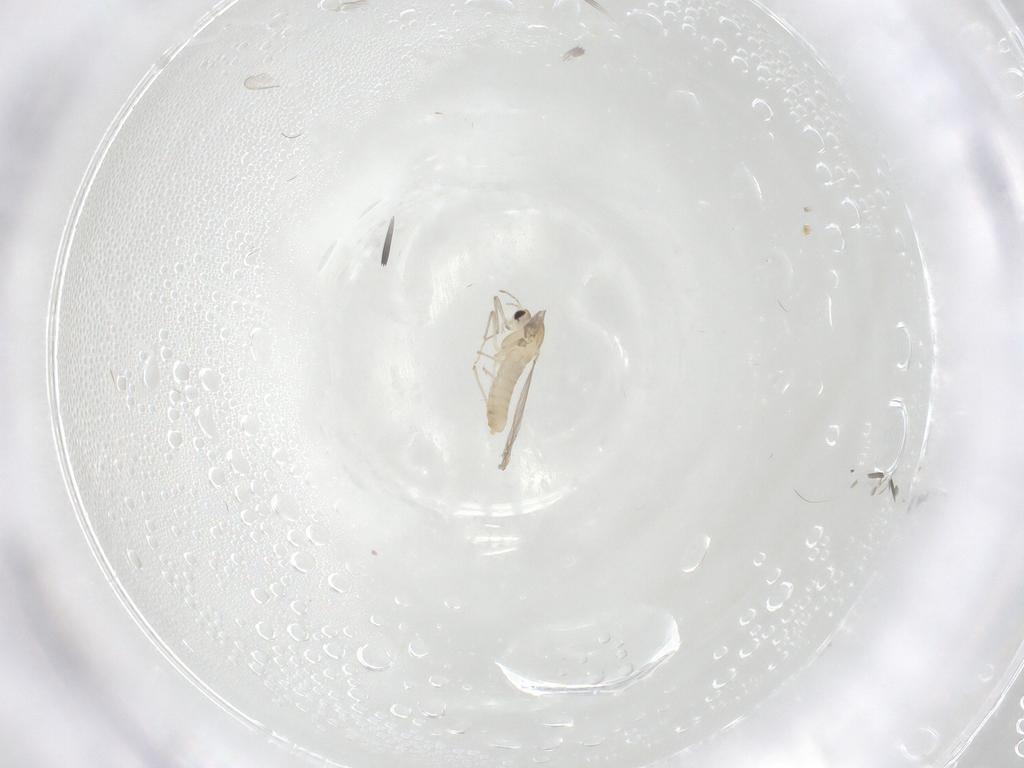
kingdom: Animalia
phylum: Arthropoda
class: Insecta
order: Diptera
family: Chironomidae
